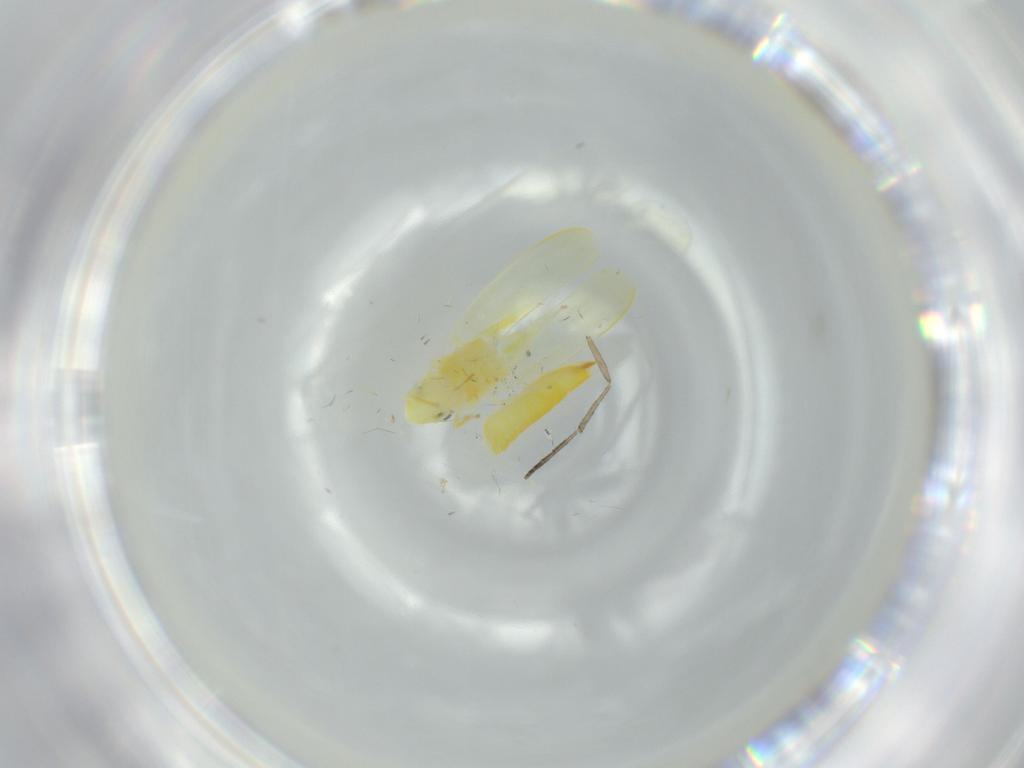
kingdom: Animalia
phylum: Arthropoda
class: Insecta
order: Hemiptera
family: Cicadellidae
